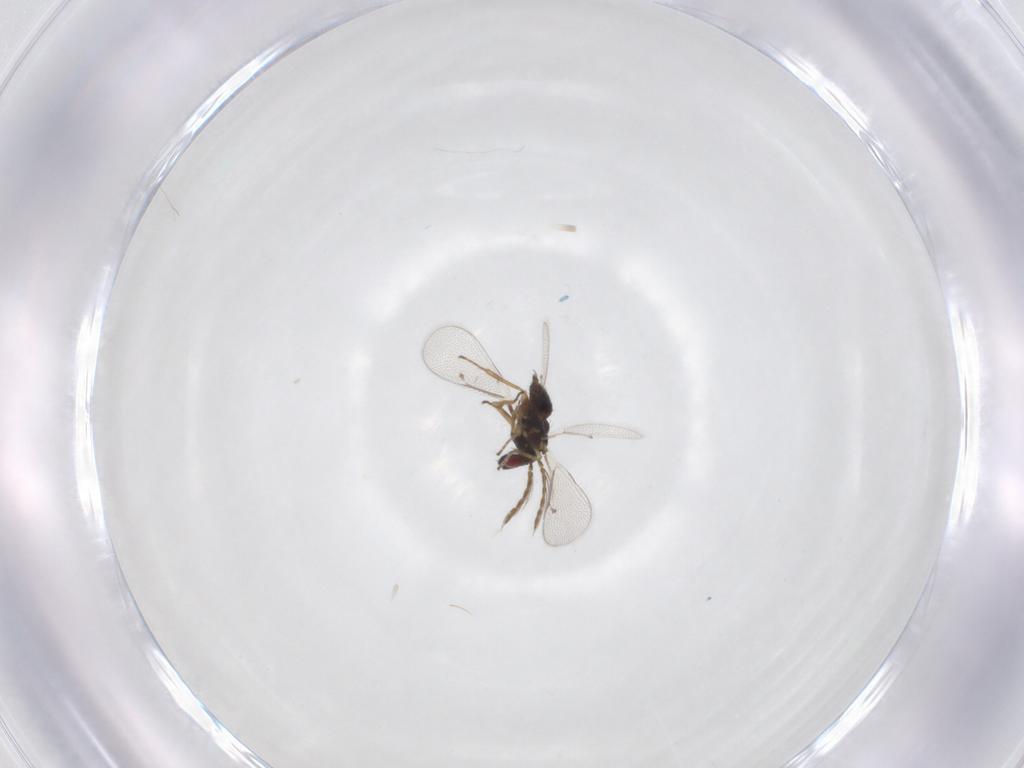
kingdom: Animalia
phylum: Arthropoda
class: Insecta
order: Hymenoptera
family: Eulophidae
